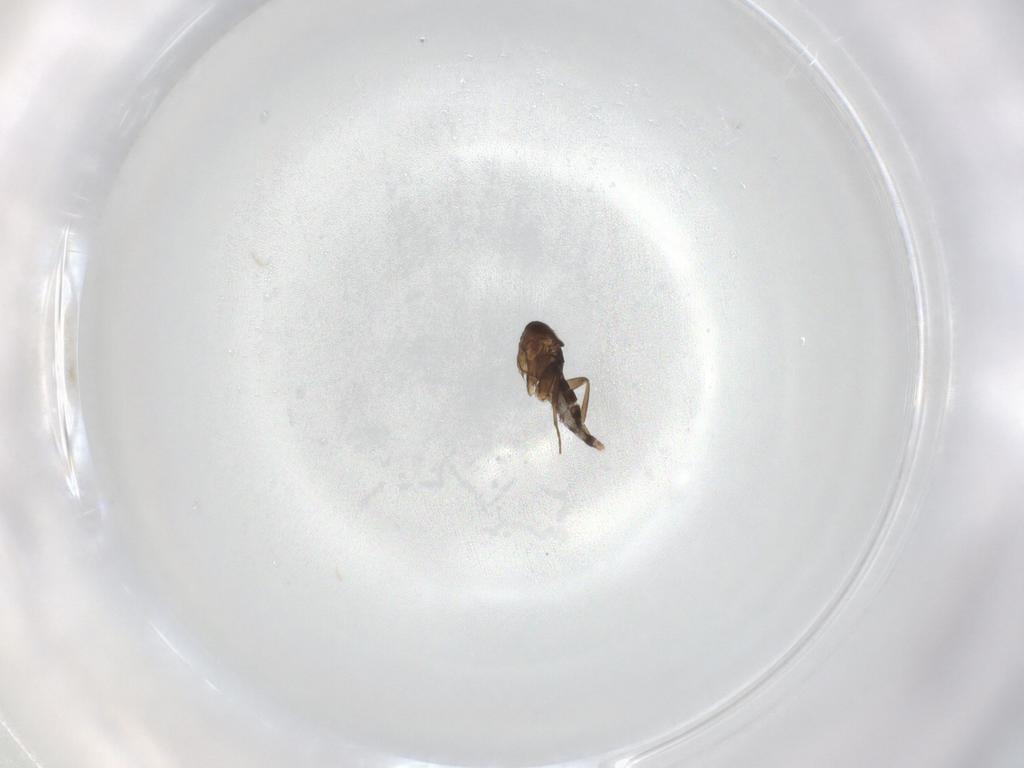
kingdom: Animalia
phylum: Arthropoda
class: Insecta
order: Diptera
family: Phoridae
